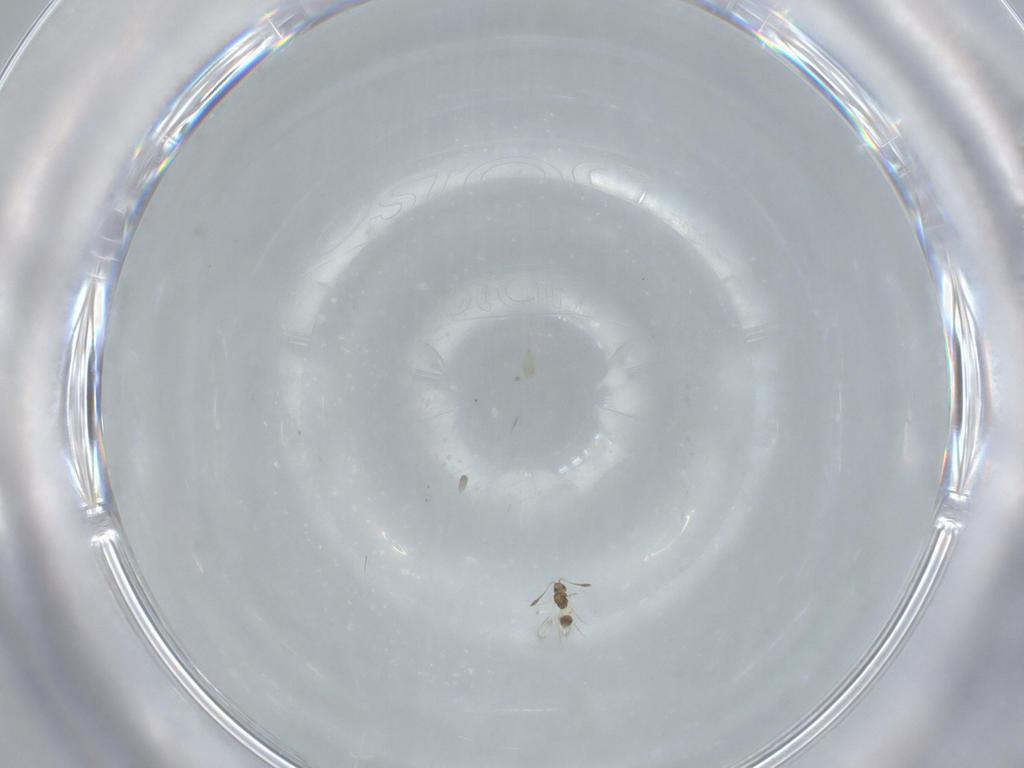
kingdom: Animalia
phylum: Arthropoda
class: Insecta
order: Hymenoptera
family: Mymarommatidae
